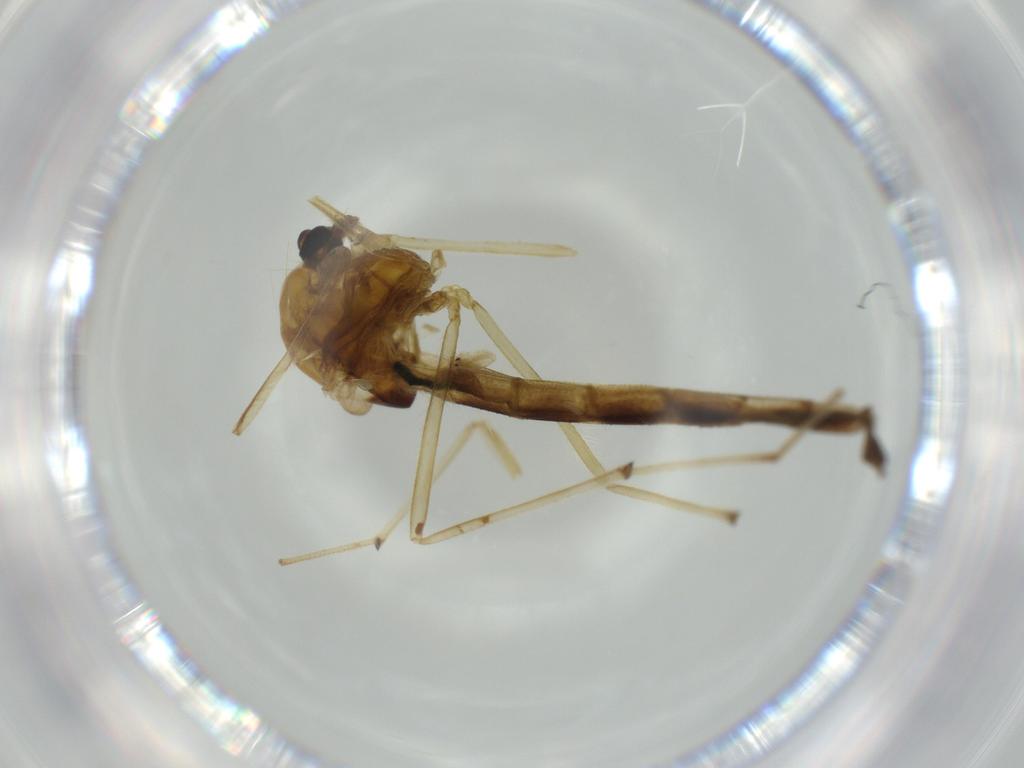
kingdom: Animalia
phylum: Arthropoda
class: Insecta
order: Diptera
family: Chironomidae
